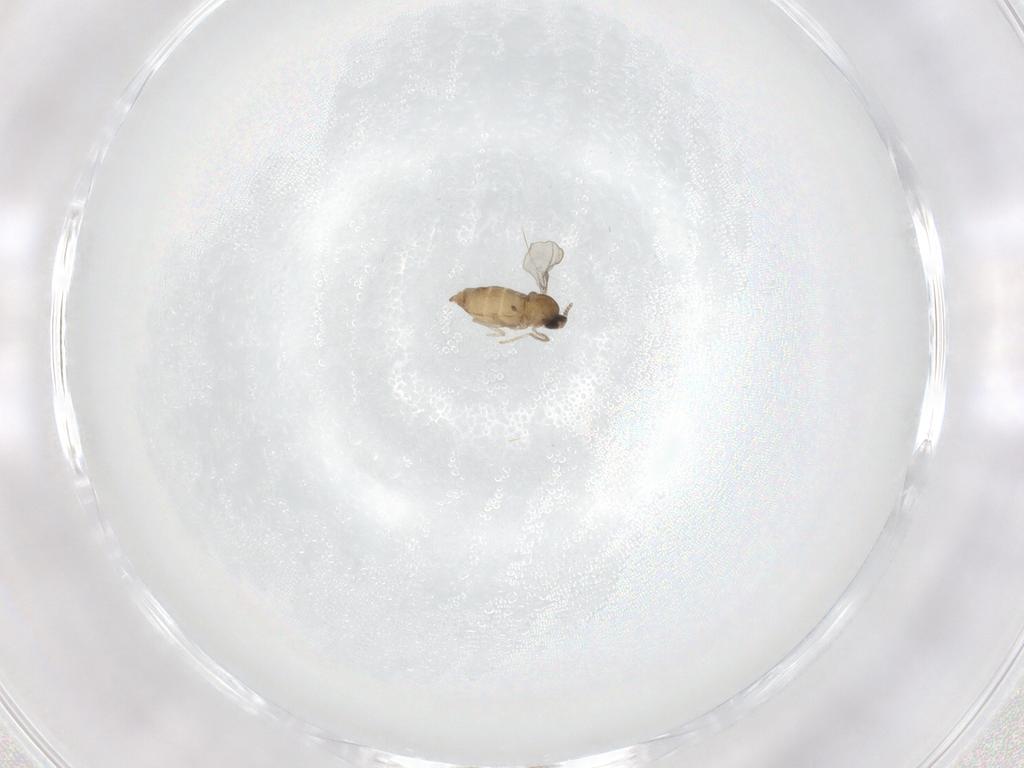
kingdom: Animalia
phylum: Arthropoda
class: Insecta
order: Diptera
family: Cecidomyiidae
